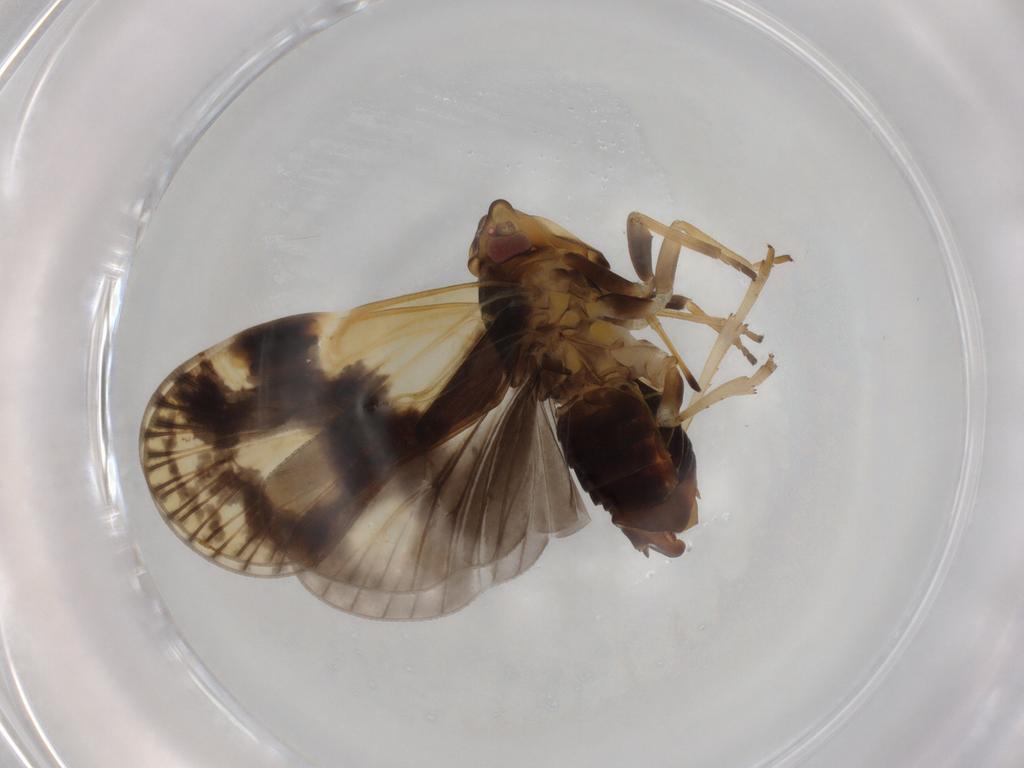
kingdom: Animalia
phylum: Arthropoda
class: Insecta
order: Hemiptera
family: Cixiidae
